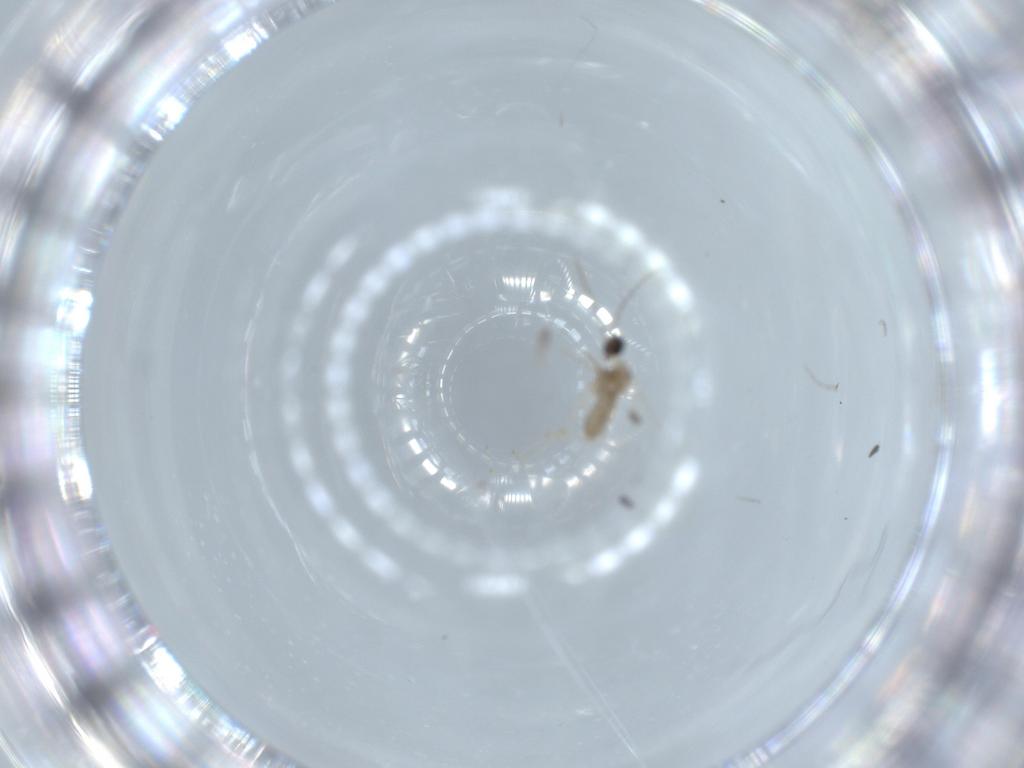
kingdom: Animalia
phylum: Arthropoda
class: Insecta
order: Diptera
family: Cecidomyiidae
